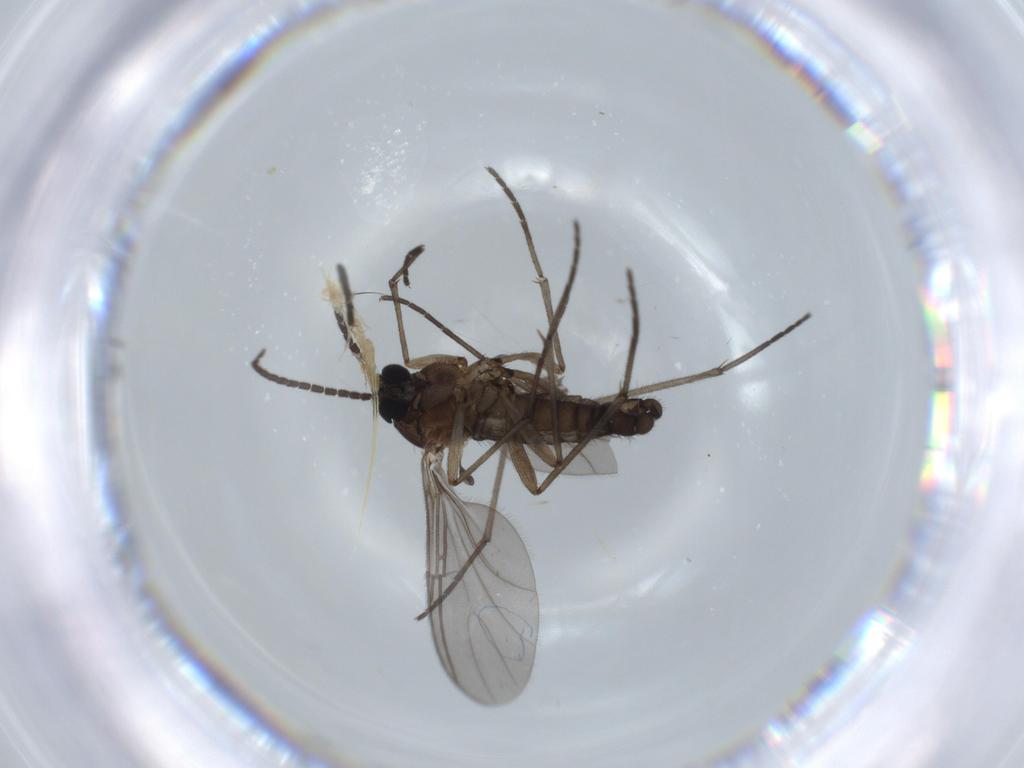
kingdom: Animalia
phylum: Arthropoda
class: Insecta
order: Diptera
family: Sciaridae
